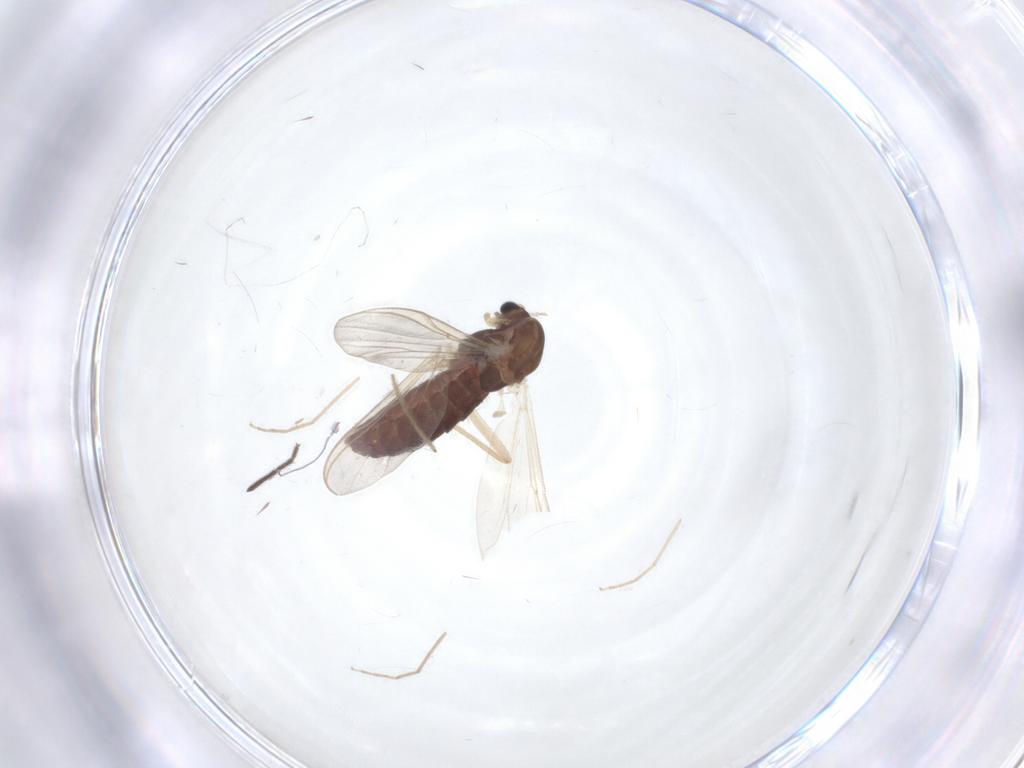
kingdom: Animalia
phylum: Arthropoda
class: Insecta
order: Diptera
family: Chironomidae
